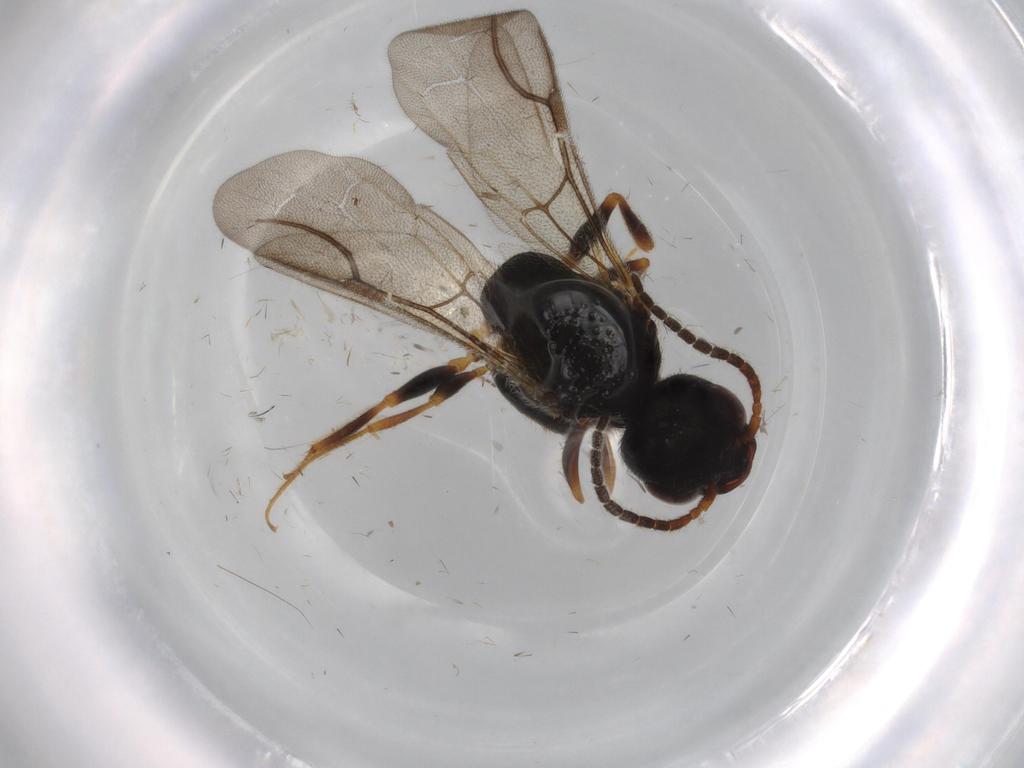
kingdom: Animalia
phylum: Arthropoda
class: Insecta
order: Hymenoptera
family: Bethylidae
